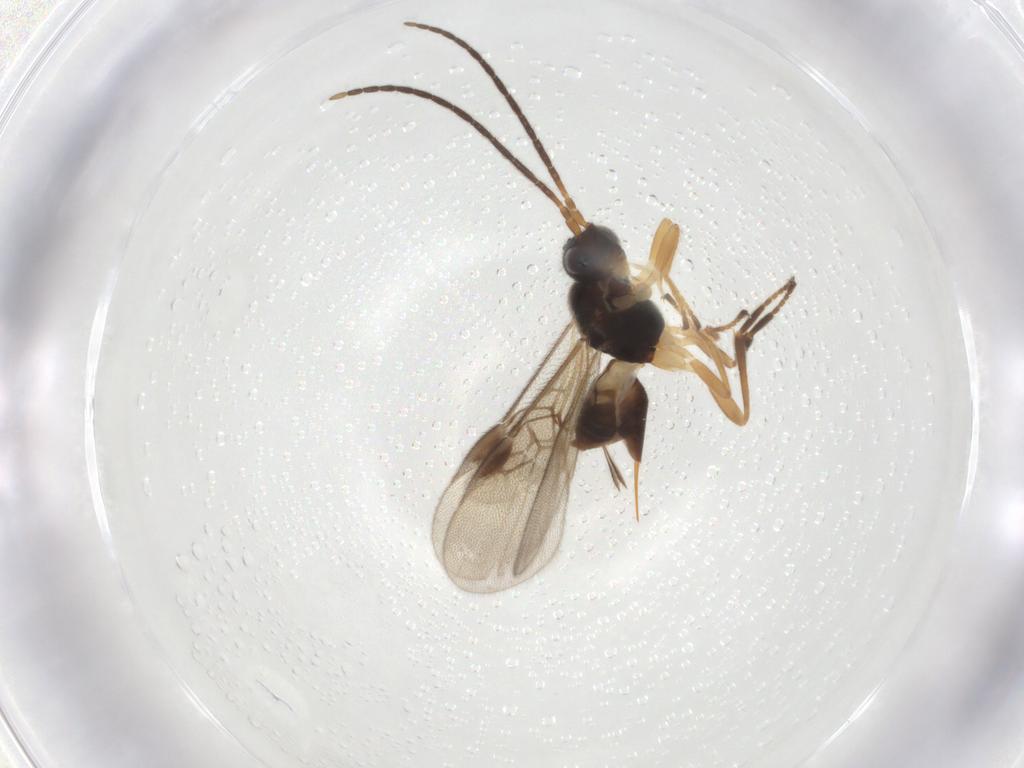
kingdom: Animalia
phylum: Arthropoda
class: Insecta
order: Hymenoptera
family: Braconidae
